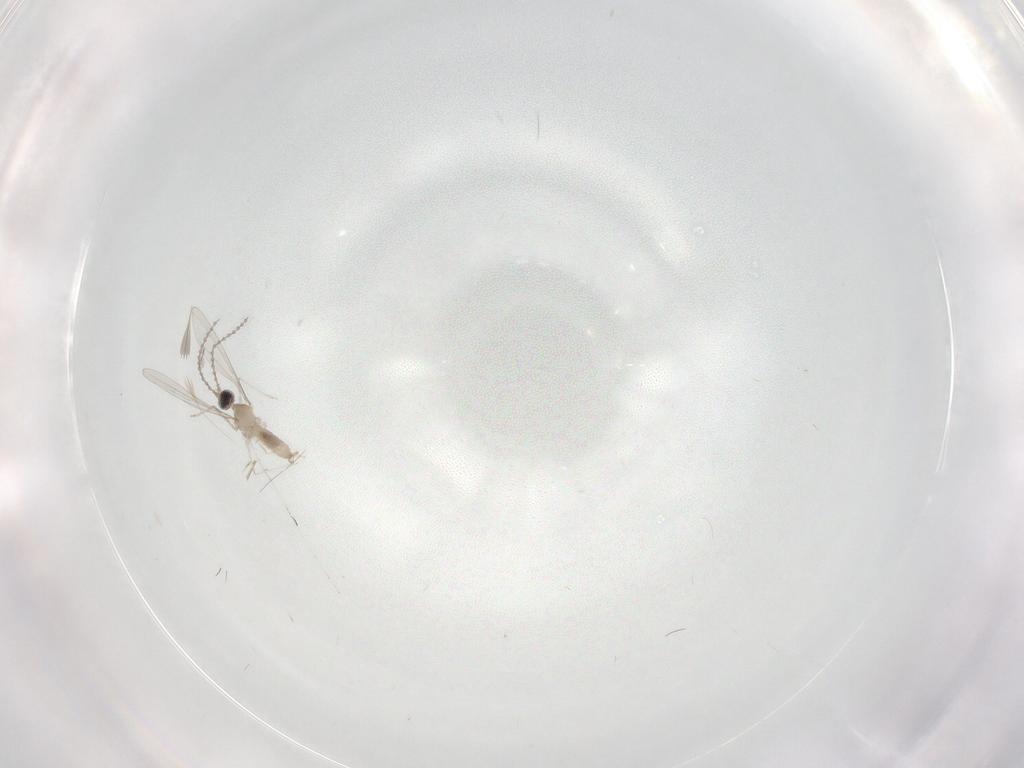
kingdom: Animalia
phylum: Arthropoda
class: Insecta
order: Diptera
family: Cecidomyiidae
